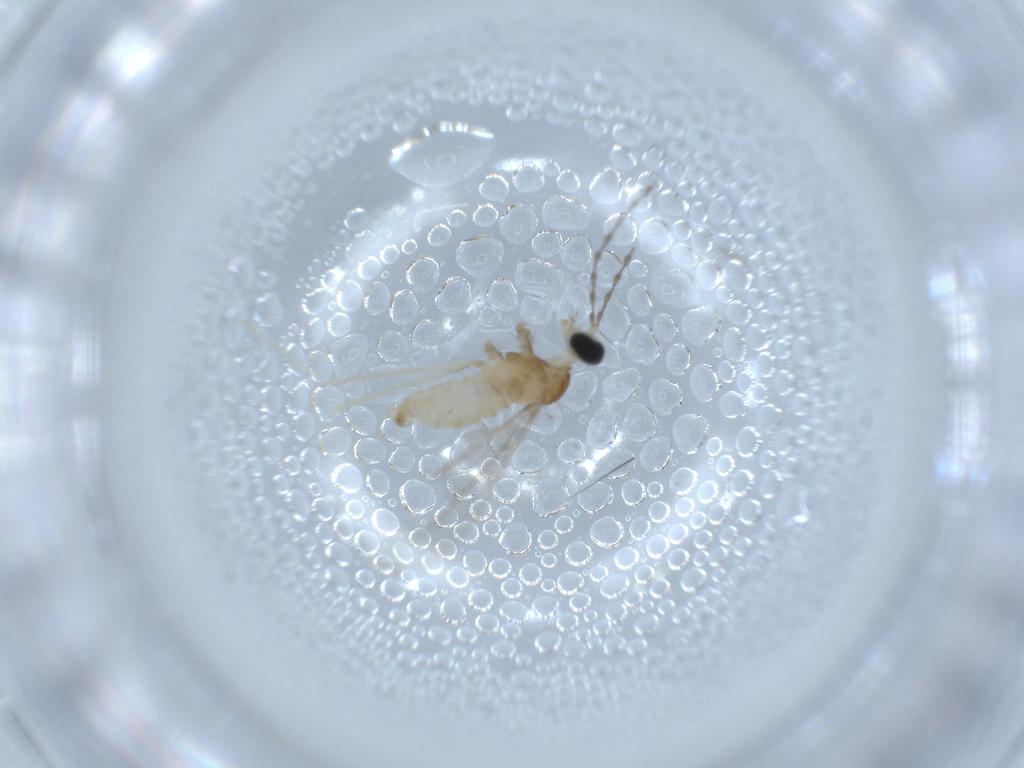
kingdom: Animalia
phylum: Arthropoda
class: Insecta
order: Diptera
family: Cecidomyiidae
